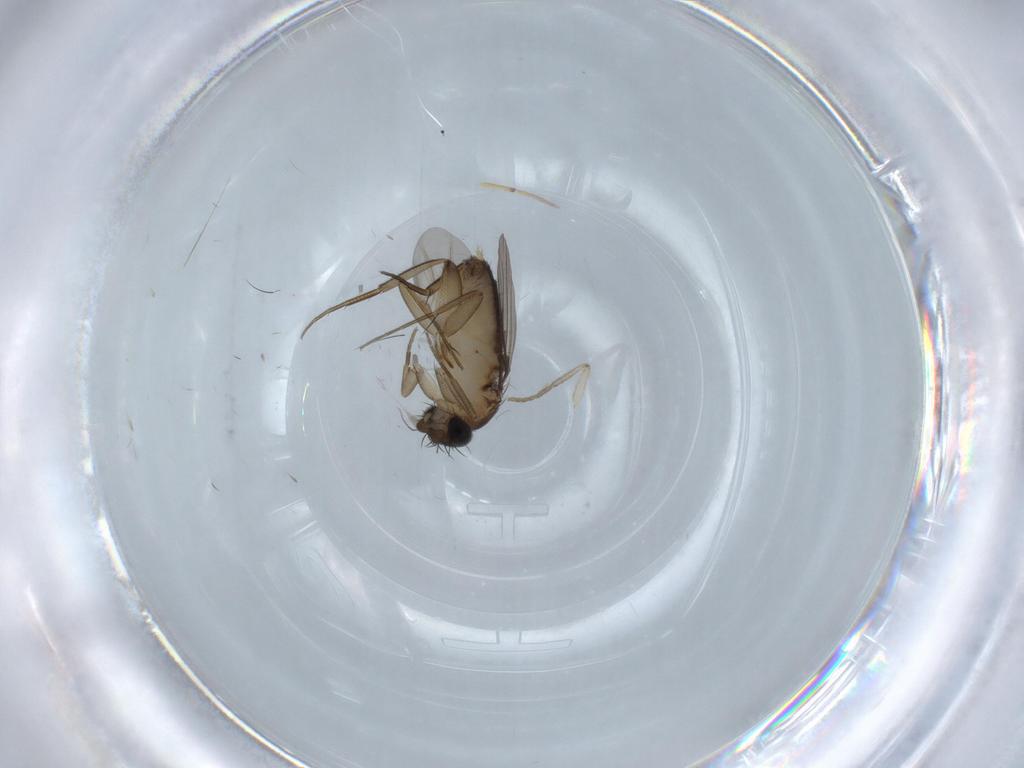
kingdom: Animalia
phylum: Arthropoda
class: Insecta
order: Diptera
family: Phoridae
